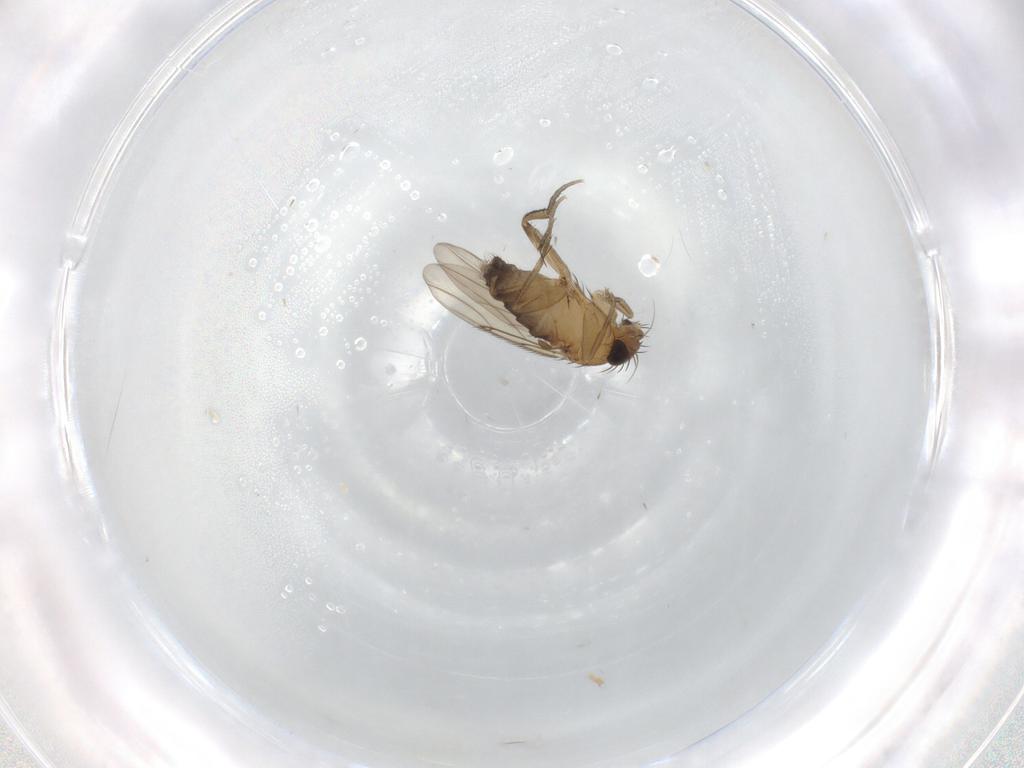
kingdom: Animalia
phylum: Arthropoda
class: Insecta
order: Diptera
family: Phoridae
